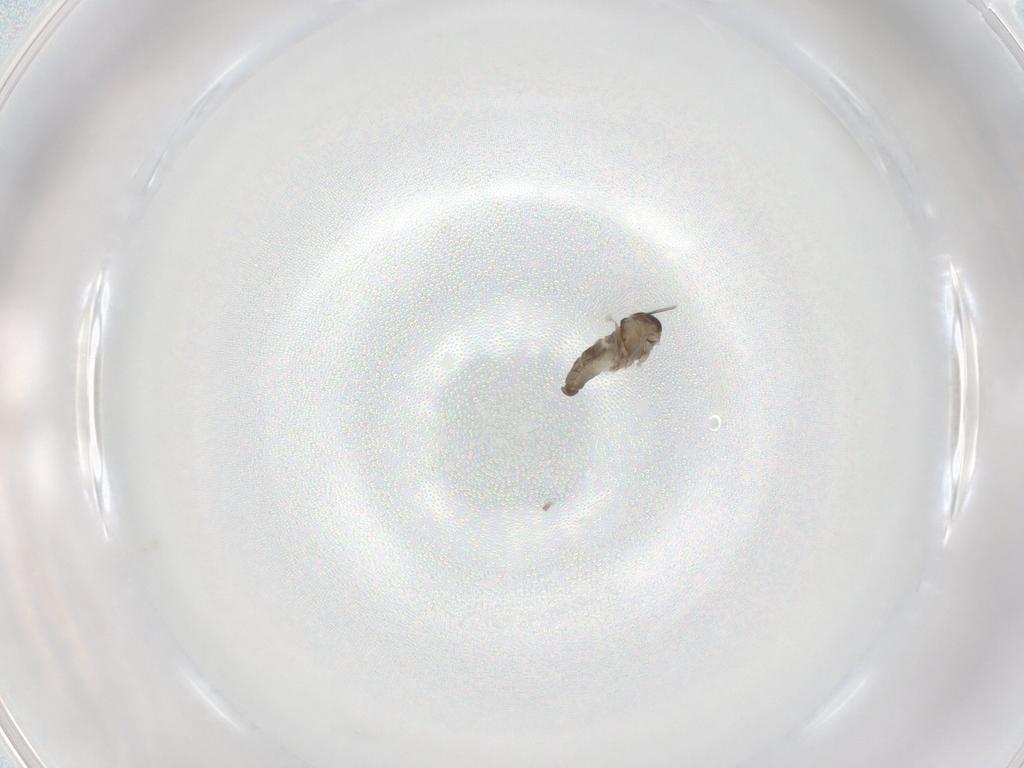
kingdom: Animalia
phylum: Arthropoda
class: Insecta
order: Diptera
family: Cecidomyiidae
